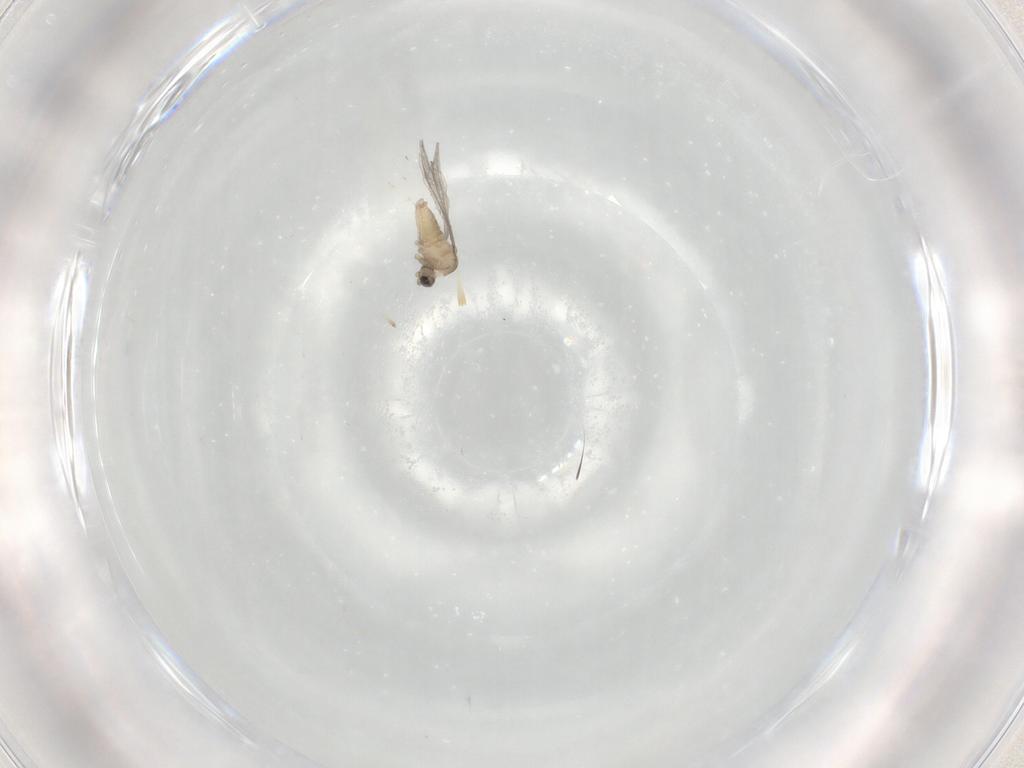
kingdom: Animalia
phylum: Arthropoda
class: Insecta
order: Diptera
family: Cecidomyiidae
